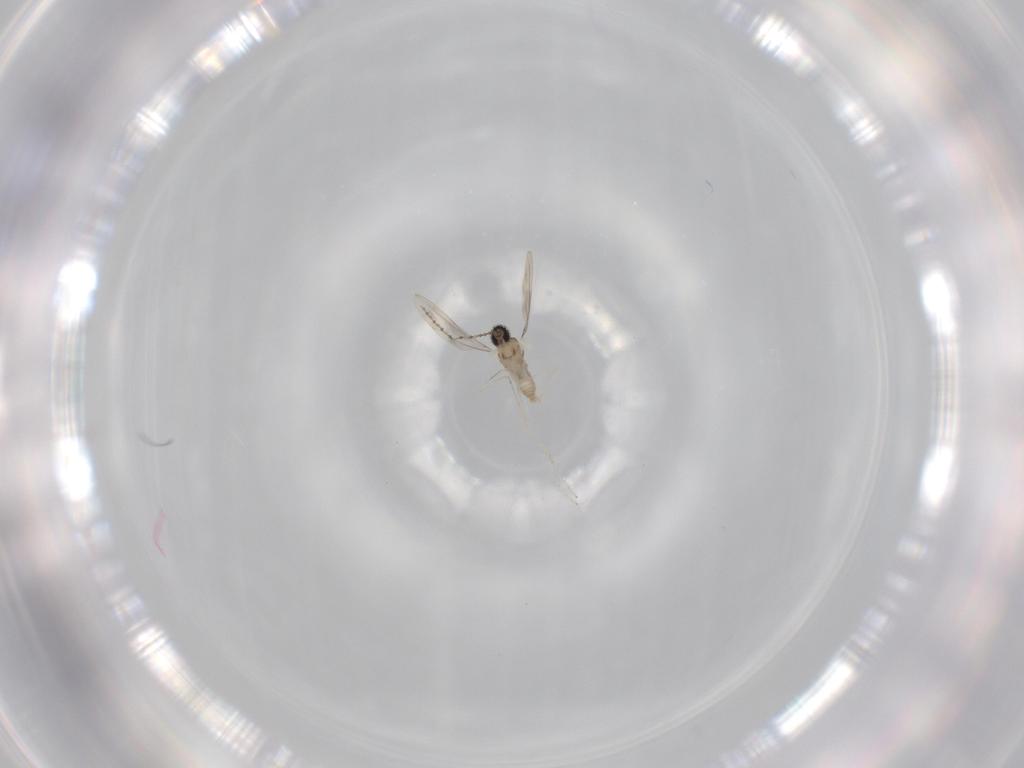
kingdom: Animalia
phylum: Arthropoda
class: Insecta
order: Diptera
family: Cecidomyiidae
